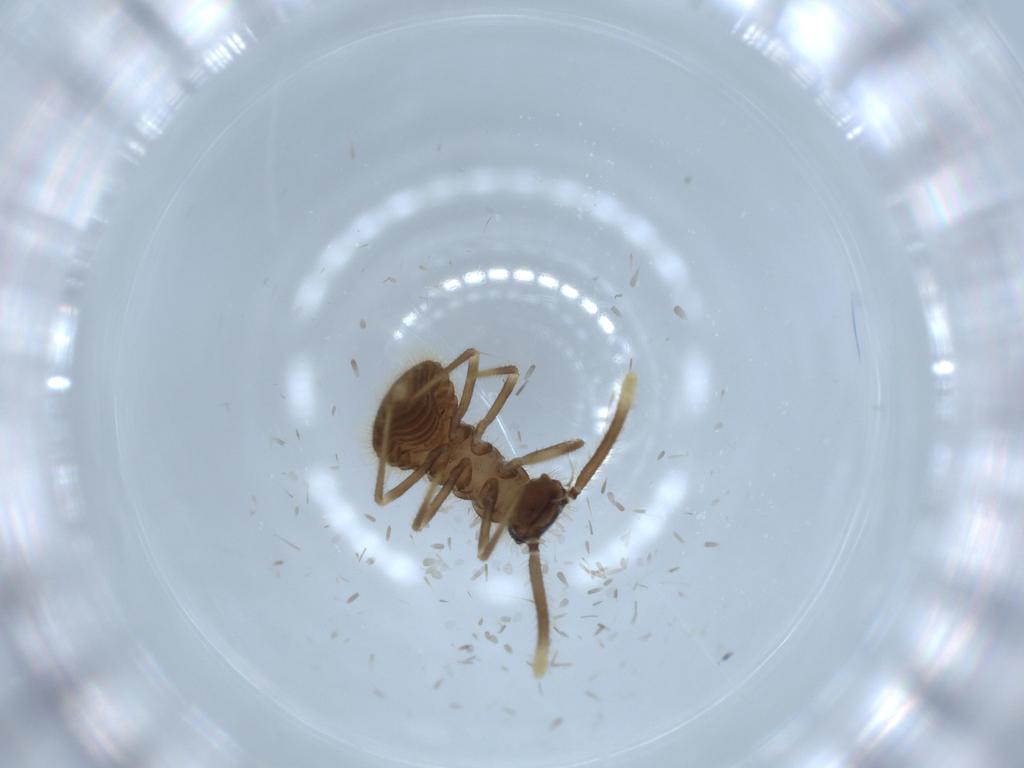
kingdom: Animalia
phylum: Arthropoda
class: Insecta
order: Coleoptera
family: Staphylinidae
